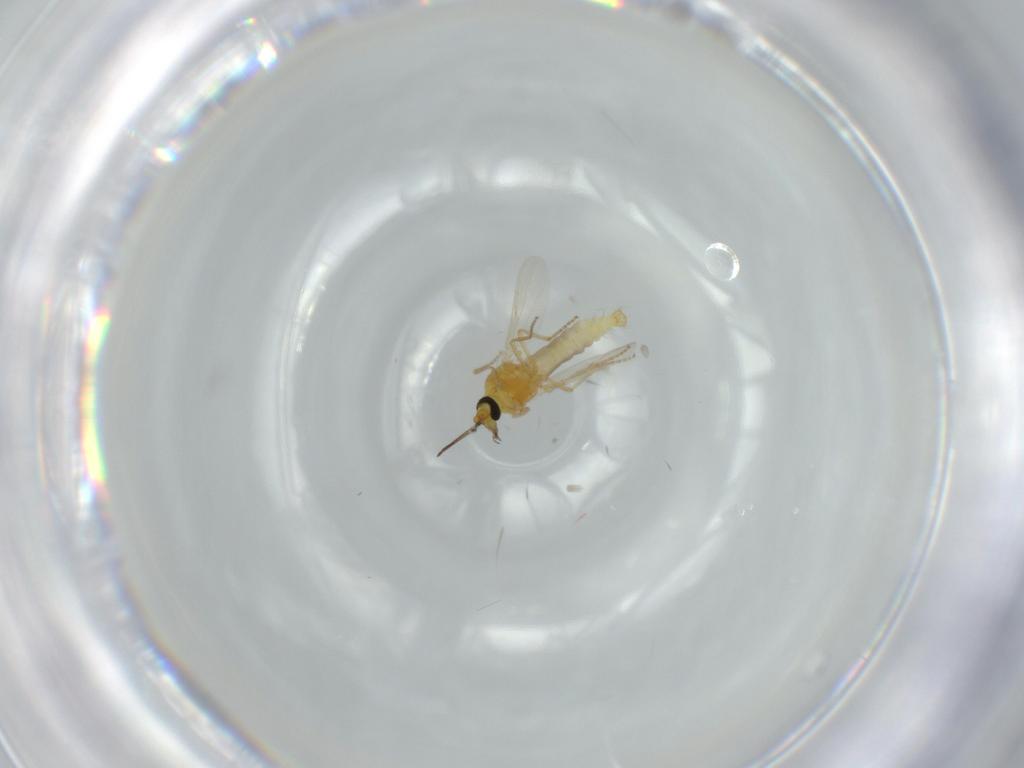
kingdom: Animalia
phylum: Arthropoda
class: Insecta
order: Diptera
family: Ceratopogonidae
